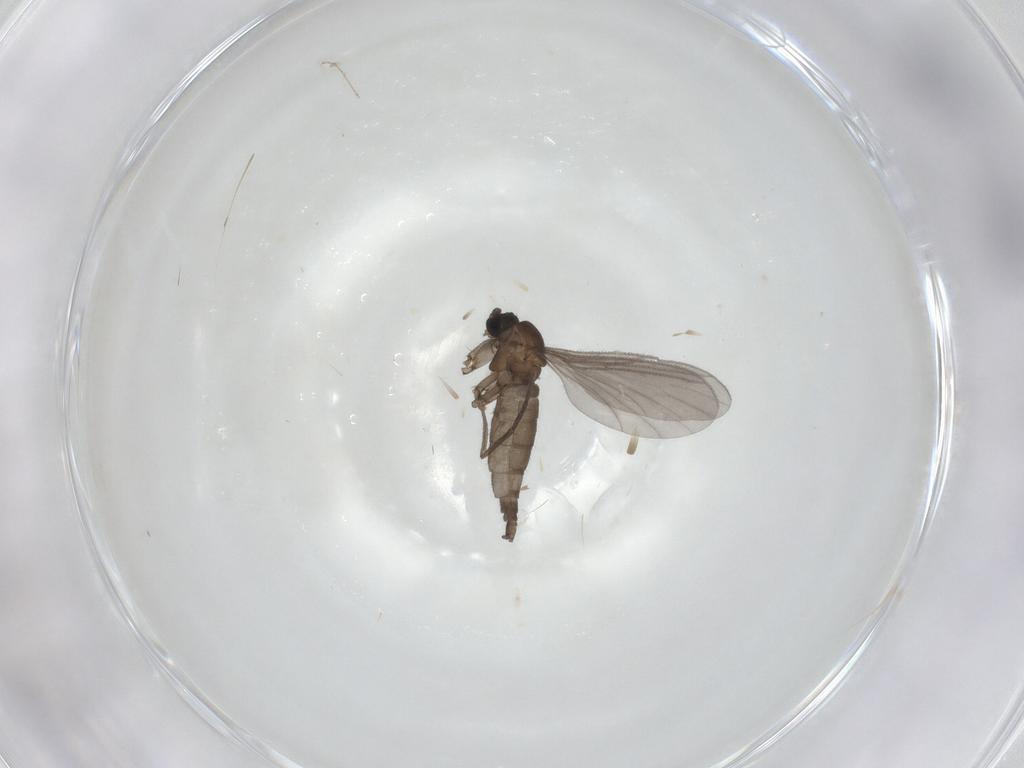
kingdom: Animalia
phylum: Arthropoda
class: Insecta
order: Diptera
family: Sciaridae
